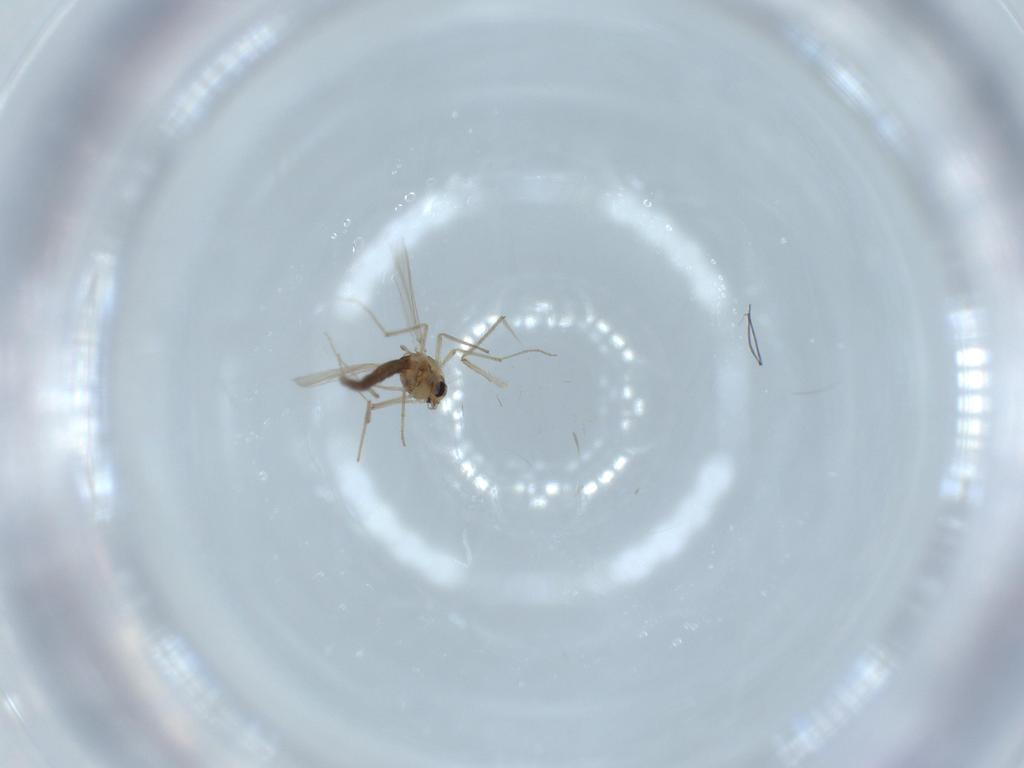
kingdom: Animalia
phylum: Arthropoda
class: Insecta
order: Diptera
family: Chironomidae
